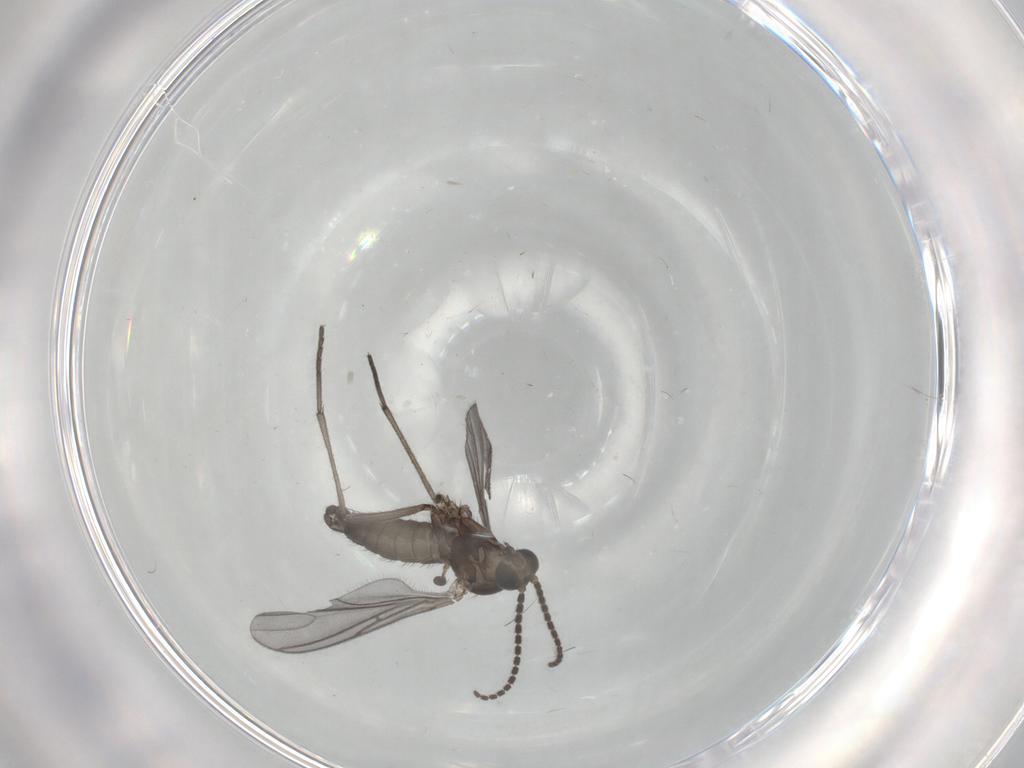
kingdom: Animalia
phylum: Arthropoda
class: Insecta
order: Diptera
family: Sciaridae
